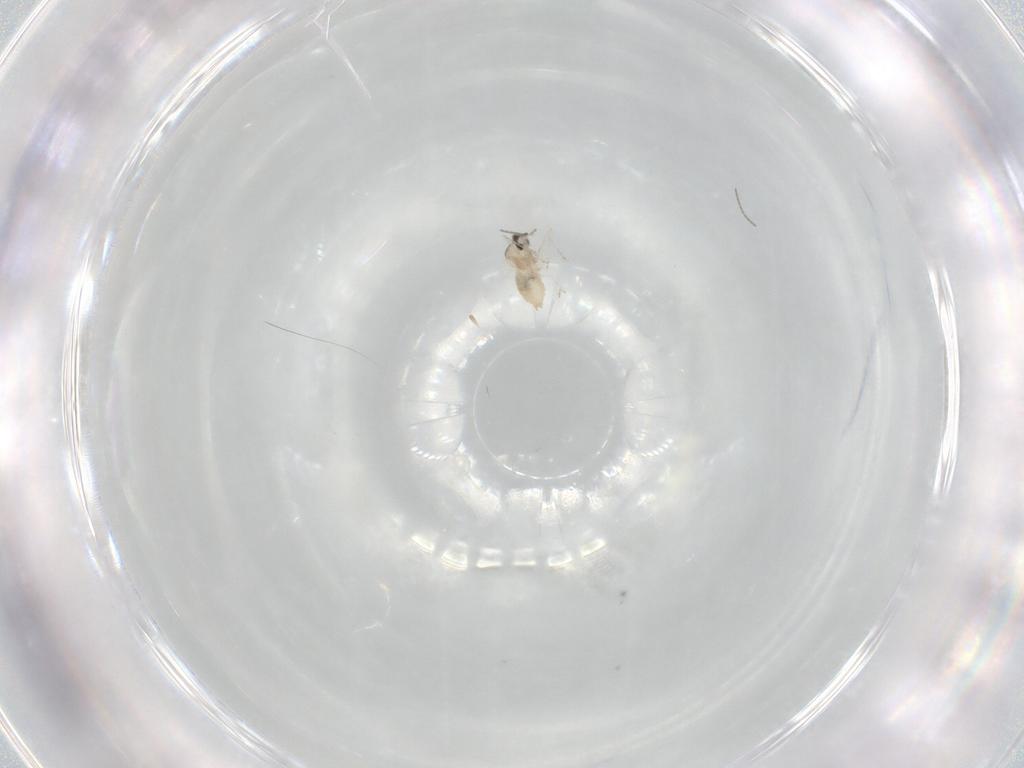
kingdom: Animalia
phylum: Arthropoda
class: Insecta
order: Diptera
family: Cecidomyiidae
